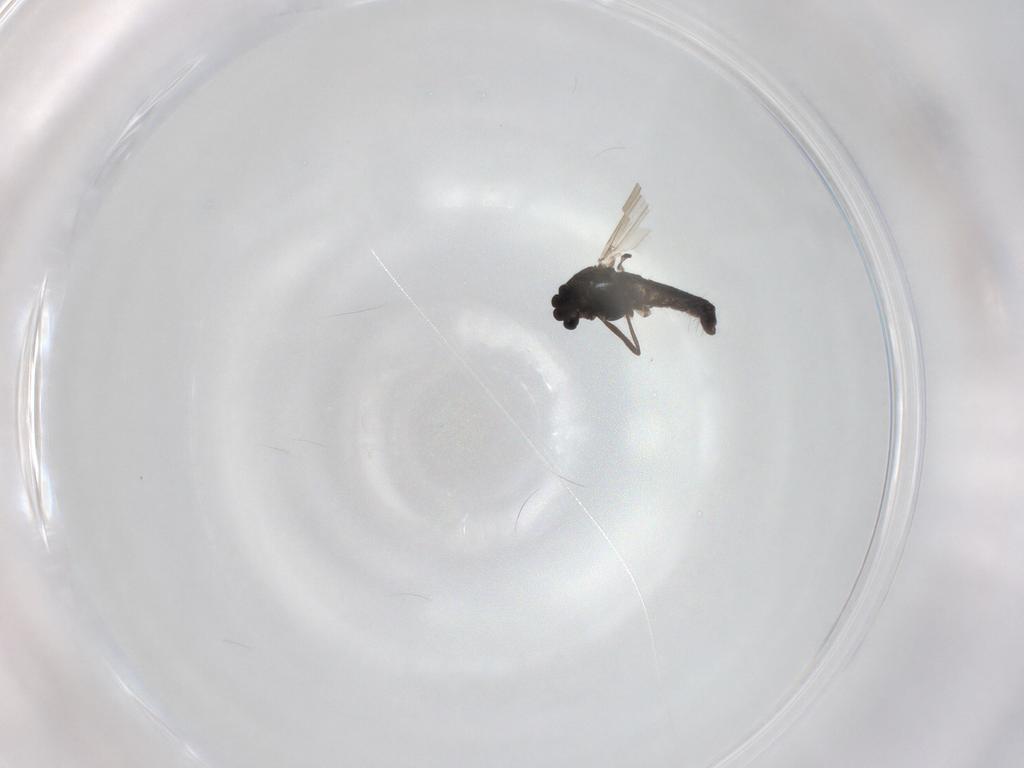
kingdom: Animalia
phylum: Arthropoda
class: Insecta
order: Diptera
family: Chironomidae
